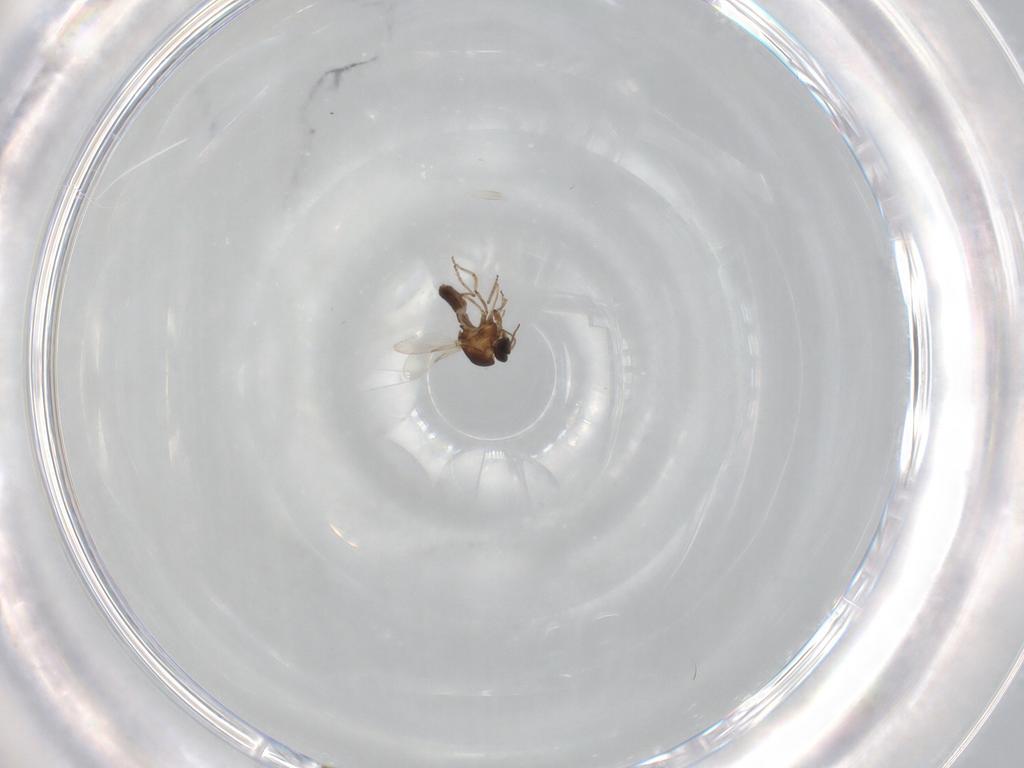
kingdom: Animalia
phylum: Arthropoda
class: Insecta
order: Diptera
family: Ceratopogonidae
